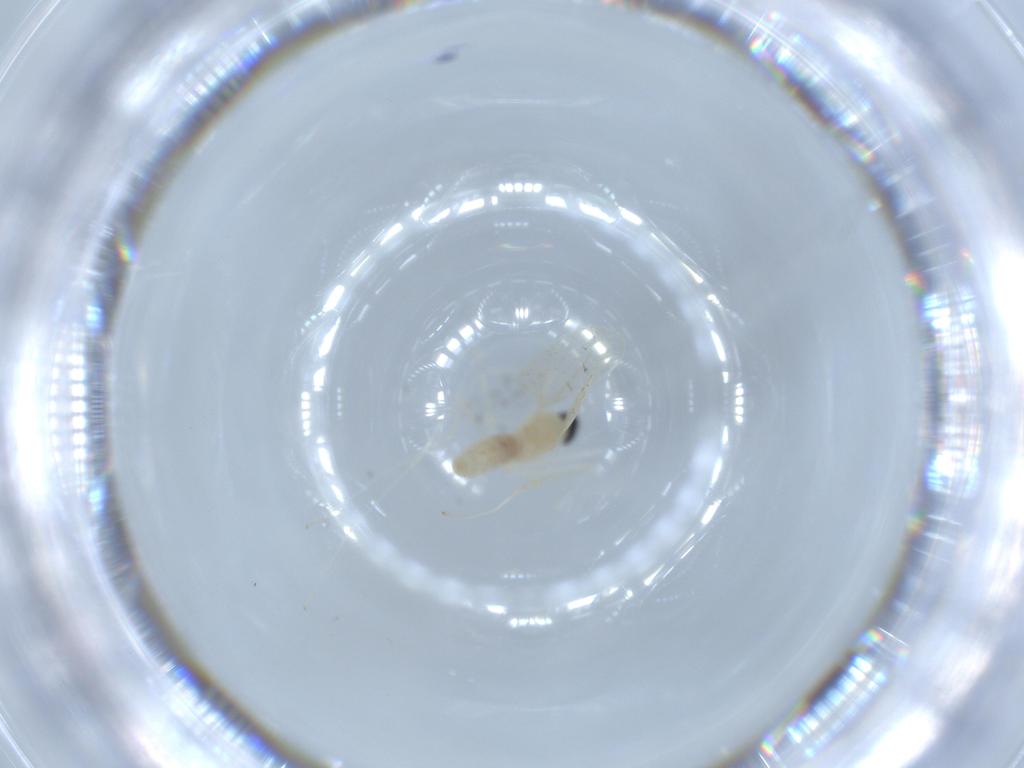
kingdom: Animalia
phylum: Arthropoda
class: Insecta
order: Diptera
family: Cecidomyiidae
